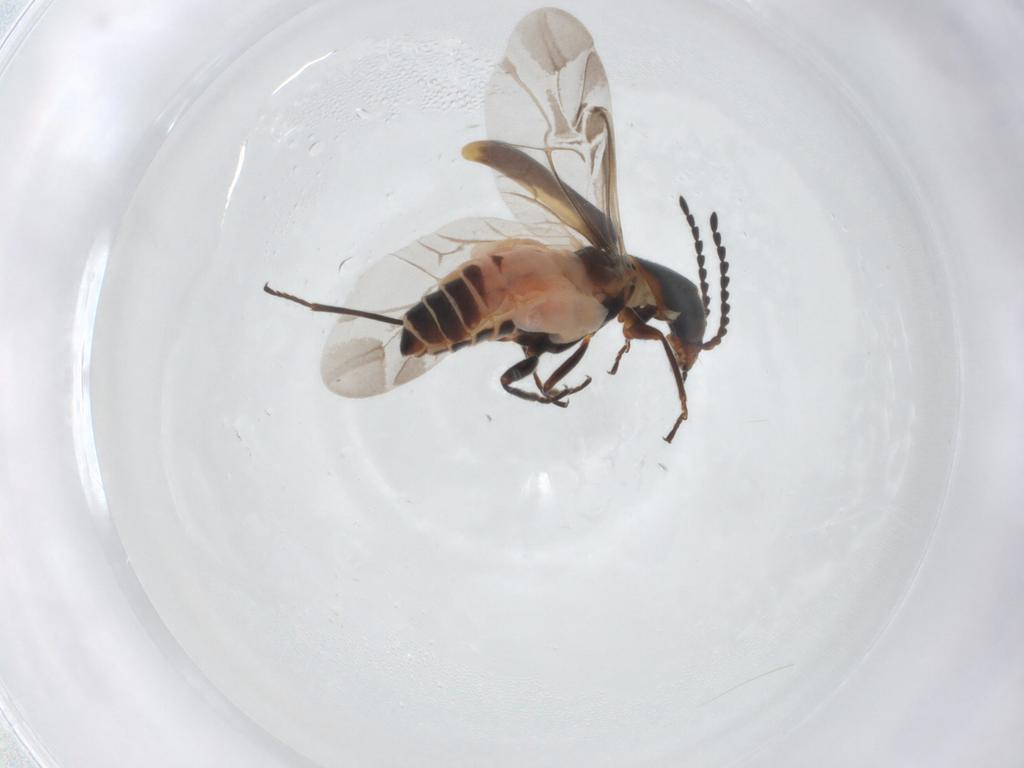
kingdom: Animalia
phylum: Arthropoda
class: Insecta
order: Coleoptera
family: Melyridae
